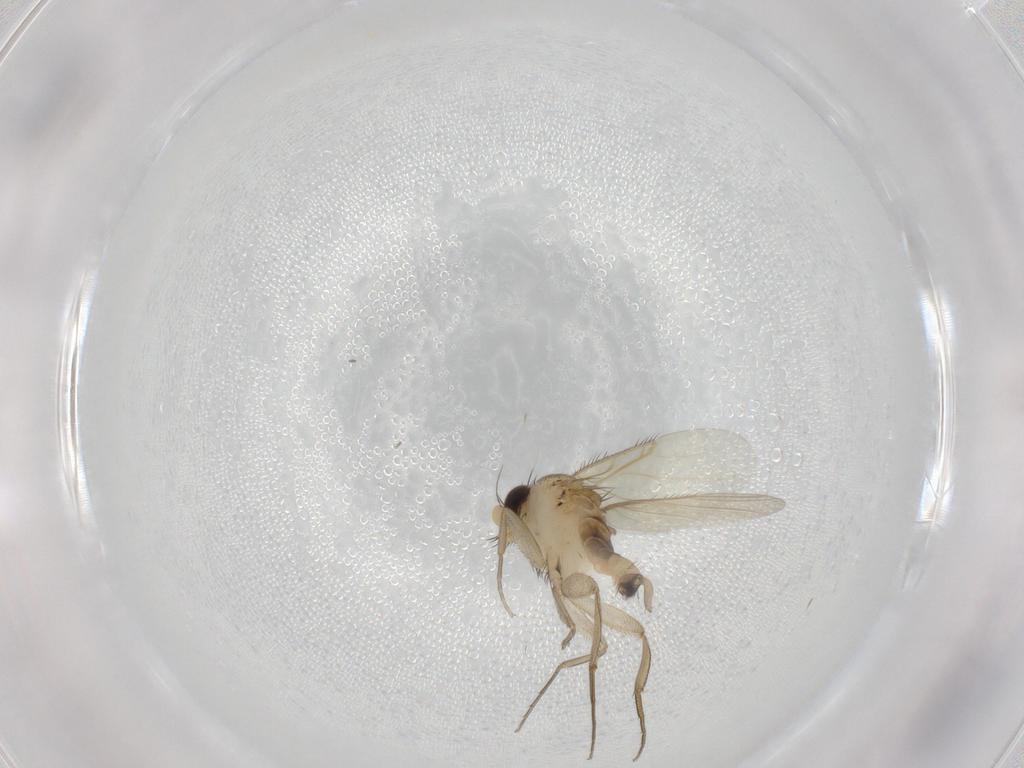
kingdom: Animalia
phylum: Arthropoda
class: Insecta
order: Diptera
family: Phoridae
